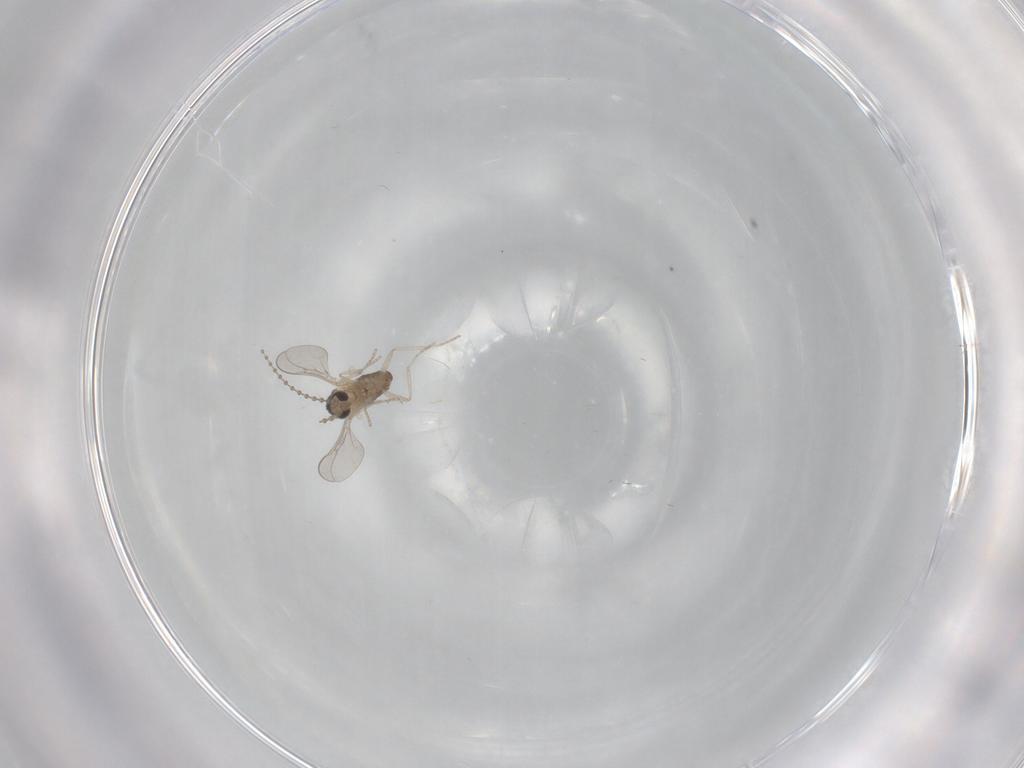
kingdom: Animalia
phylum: Arthropoda
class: Insecta
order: Diptera
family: Cecidomyiidae
